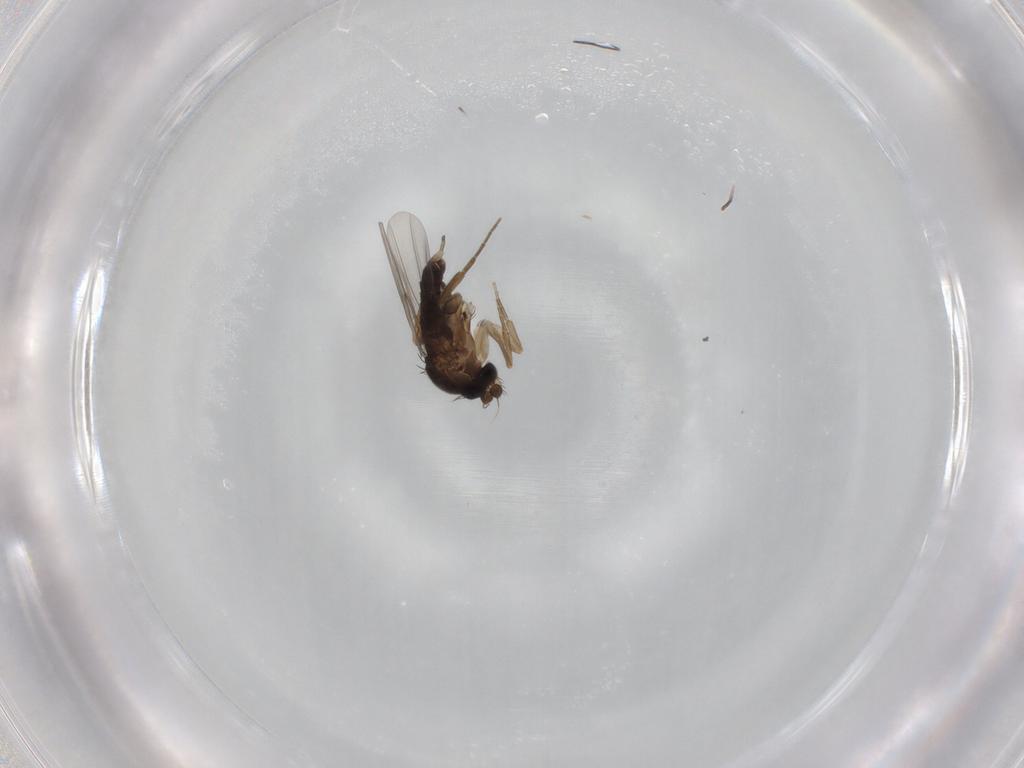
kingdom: Animalia
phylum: Arthropoda
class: Insecta
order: Diptera
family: Phoridae
